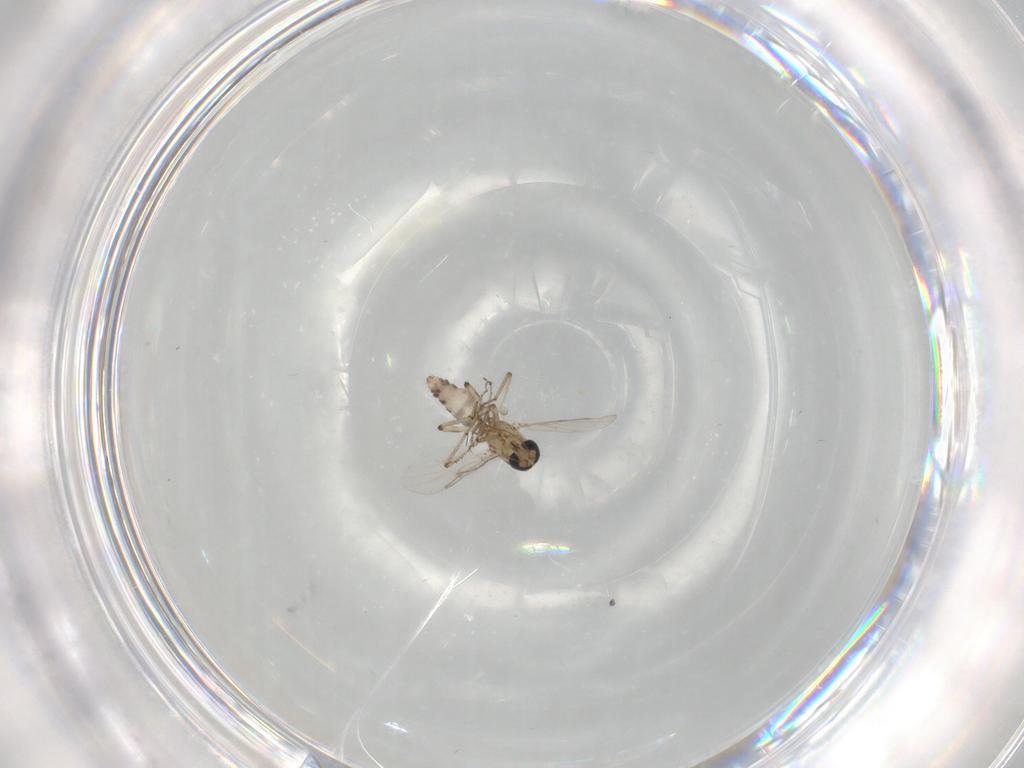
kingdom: Animalia
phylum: Arthropoda
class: Insecta
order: Diptera
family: Ceratopogonidae
